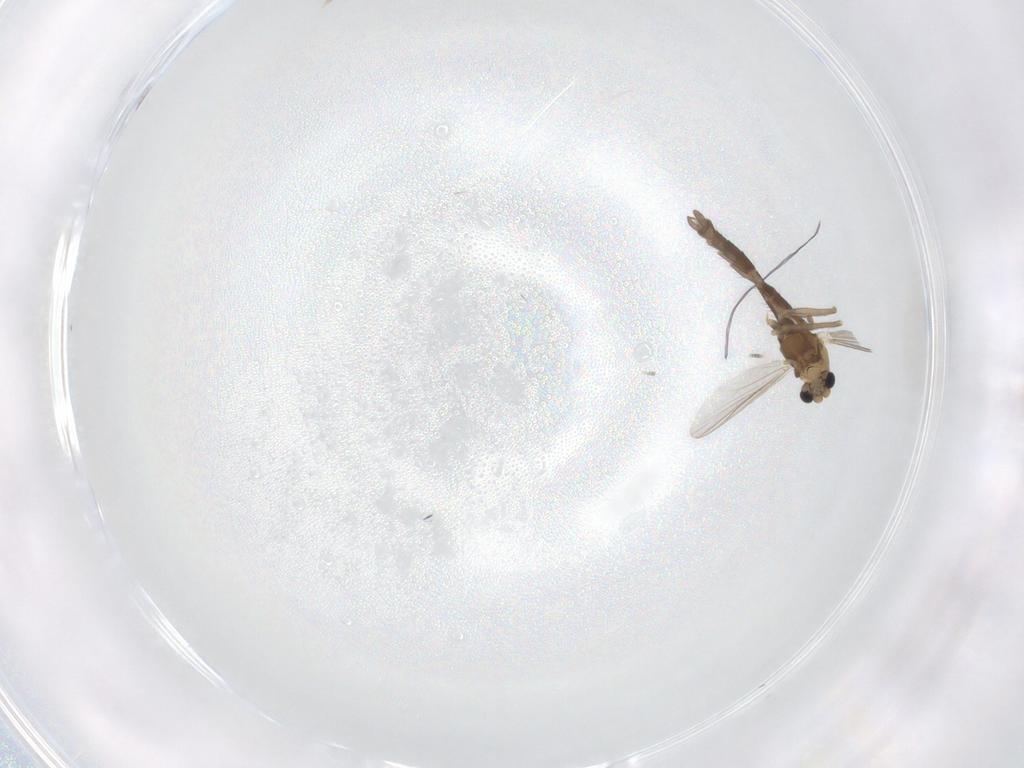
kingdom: Animalia
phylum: Arthropoda
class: Insecta
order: Diptera
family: Chironomidae
